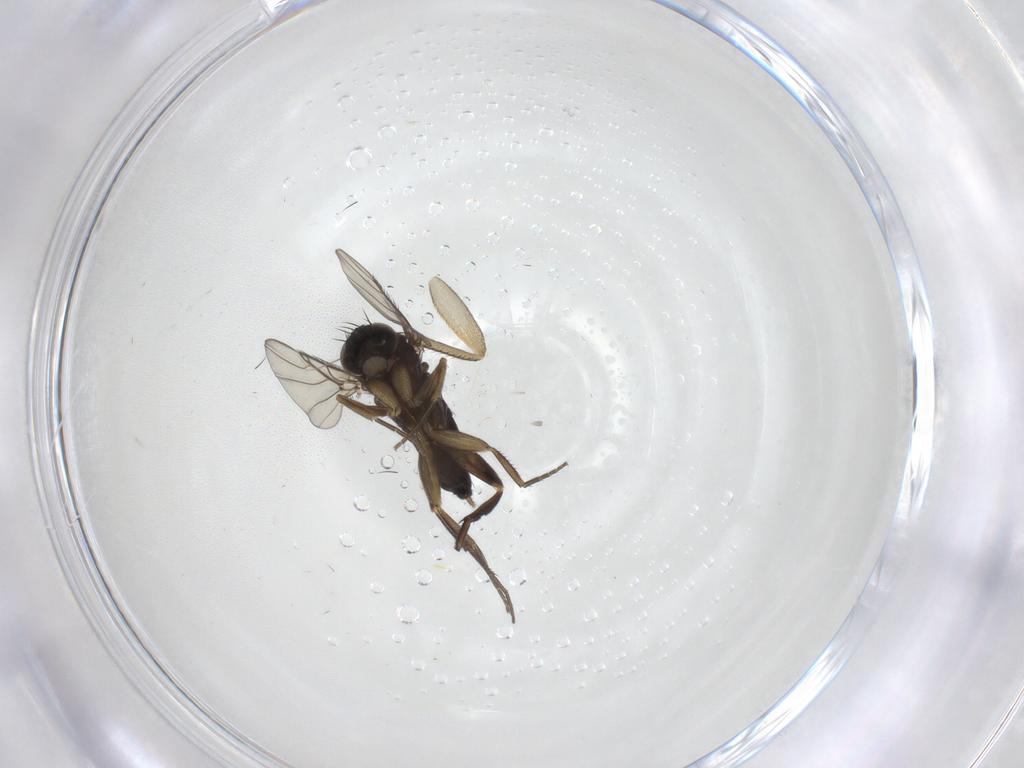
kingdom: Animalia
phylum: Arthropoda
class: Insecta
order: Diptera
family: Phoridae
